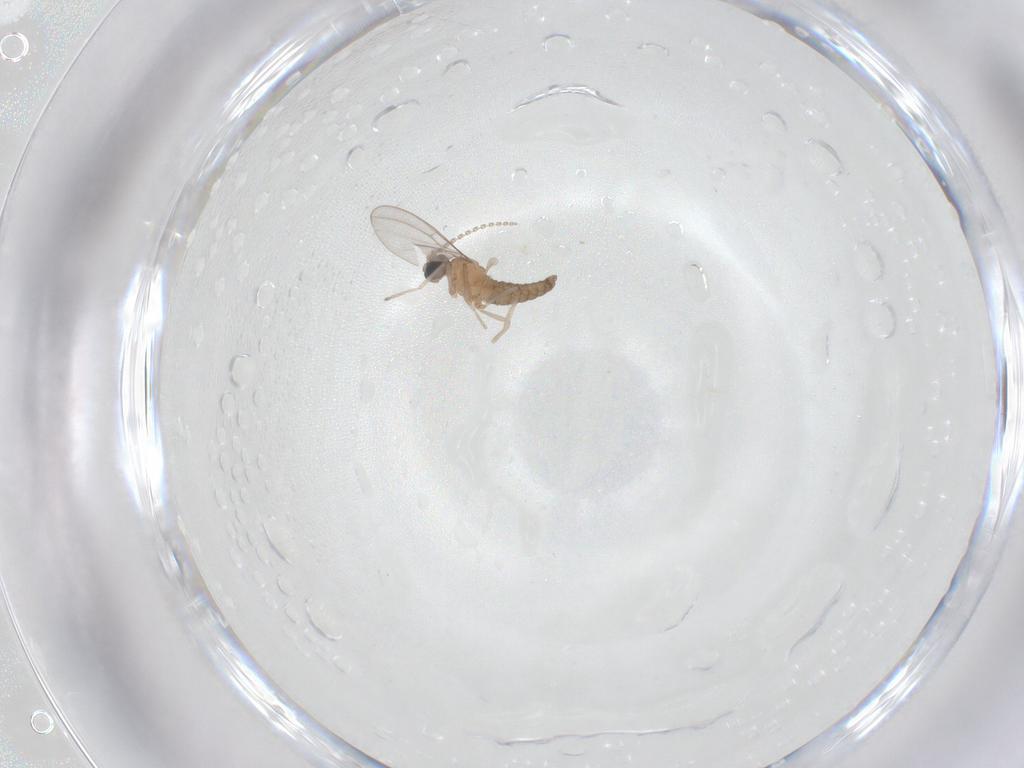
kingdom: Animalia
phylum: Arthropoda
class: Insecta
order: Diptera
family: Cecidomyiidae
